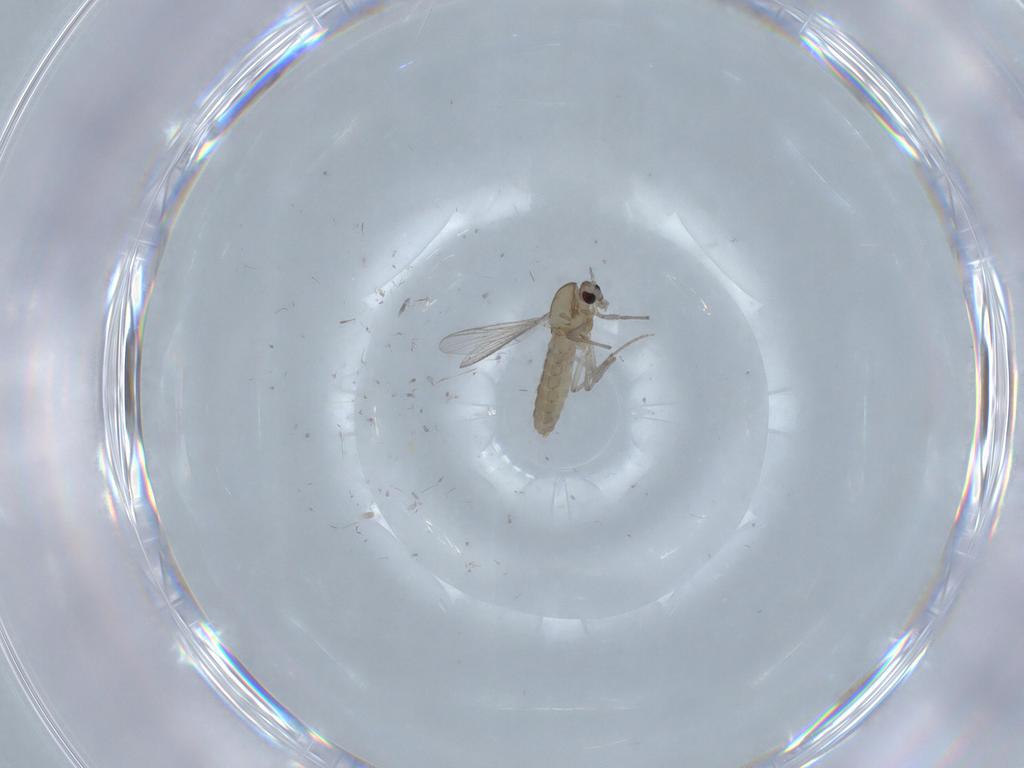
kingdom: Animalia
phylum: Arthropoda
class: Insecta
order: Diptera
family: Chironomidae
